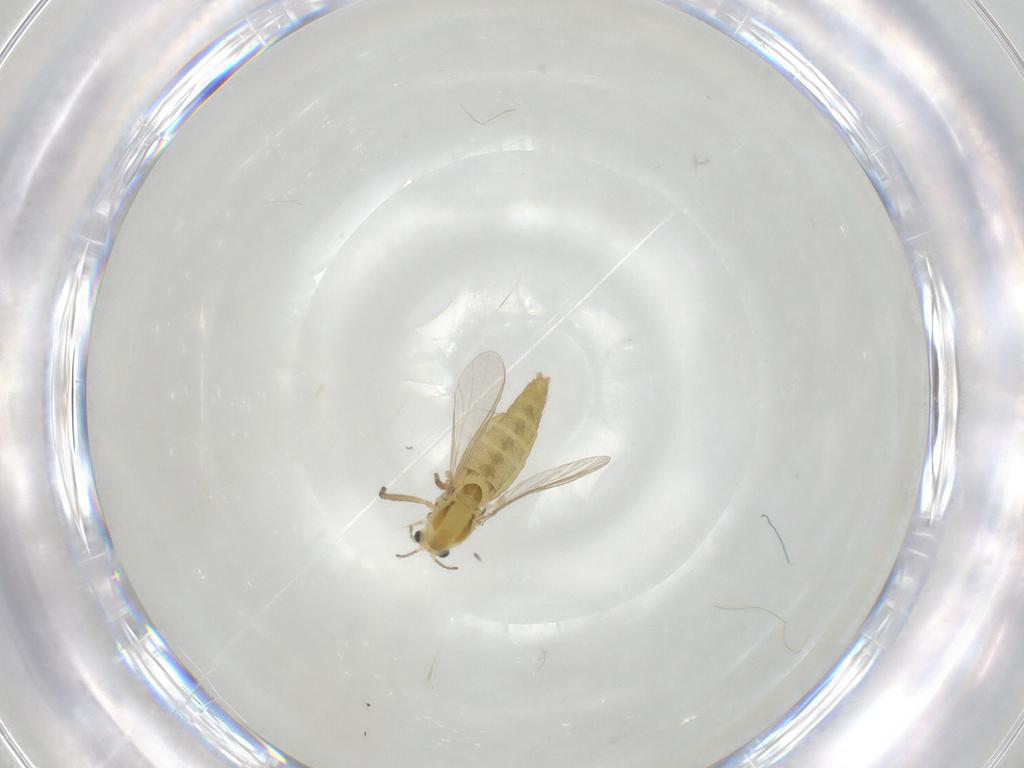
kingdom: Animalia
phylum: Arthropoda
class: Insecta
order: Diptera
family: Chironomidae
